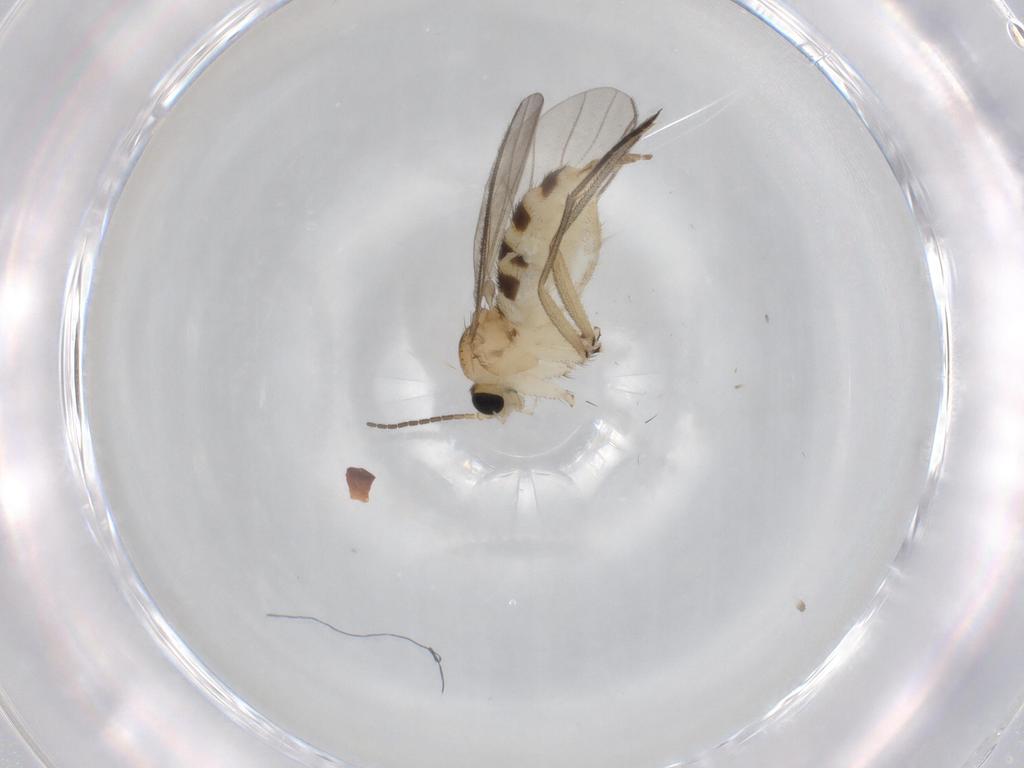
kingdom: Animalia
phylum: Arthropoda
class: Insecta
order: Diptera
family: Sciaridae
